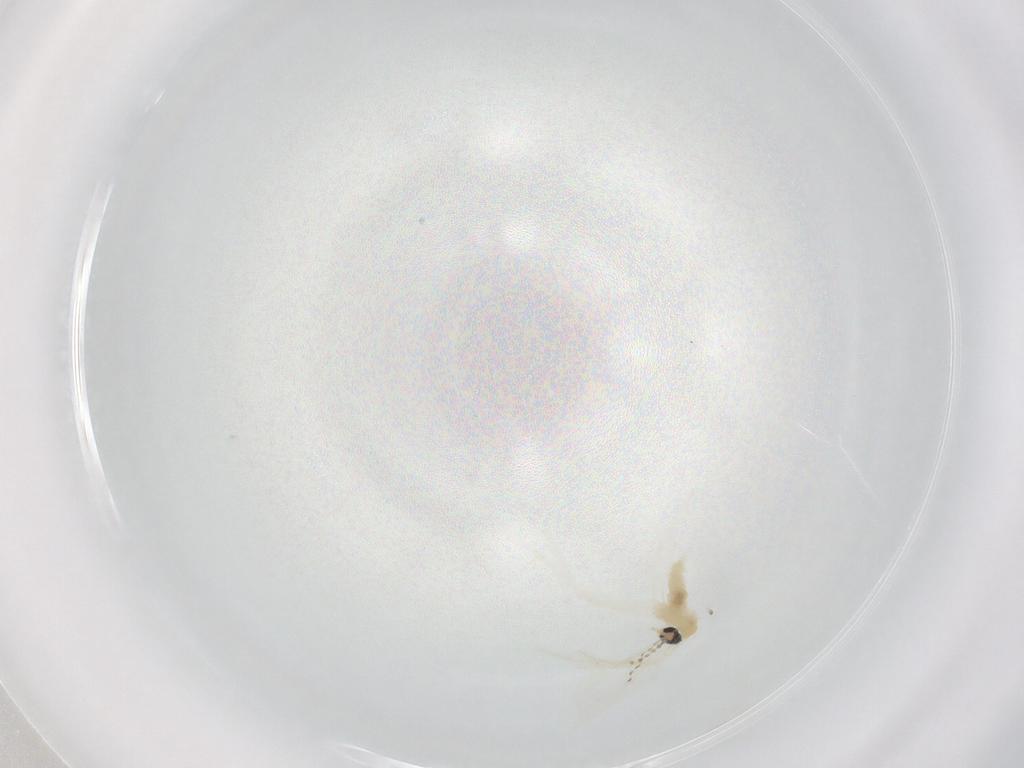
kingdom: Animalia
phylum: Arthropoda
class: Insecta
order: Diptera
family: Cecidomyiidae
